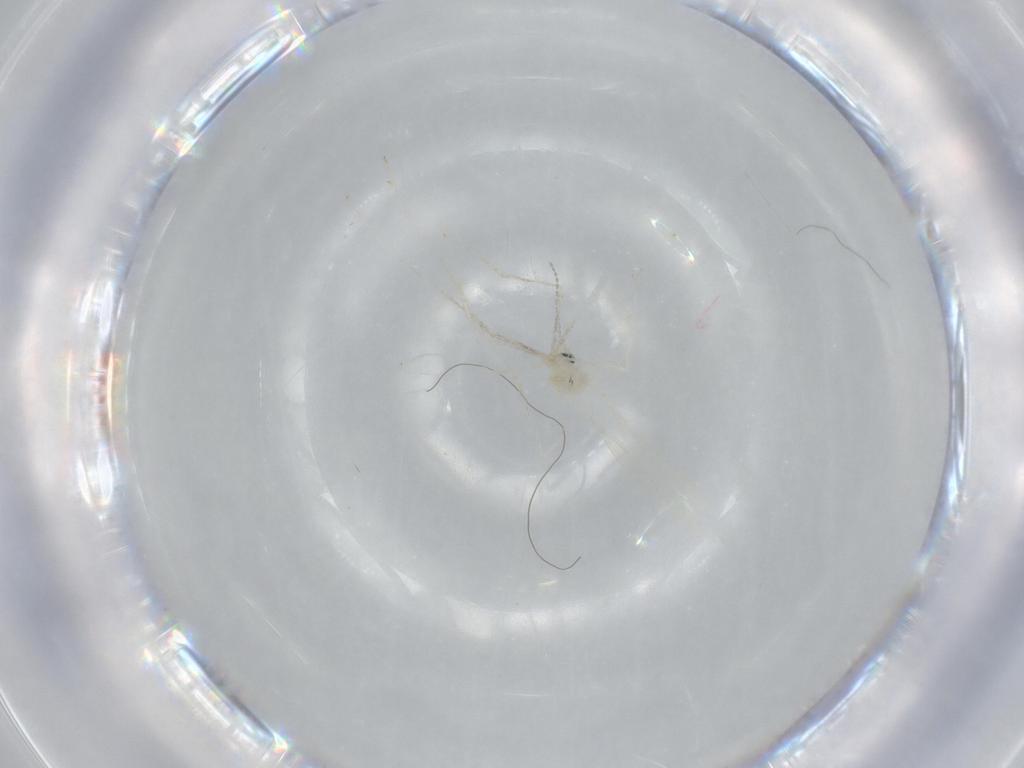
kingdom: Animalia
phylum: Arthropoda
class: Insecta
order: Diptera
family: Cecidomyiidae
